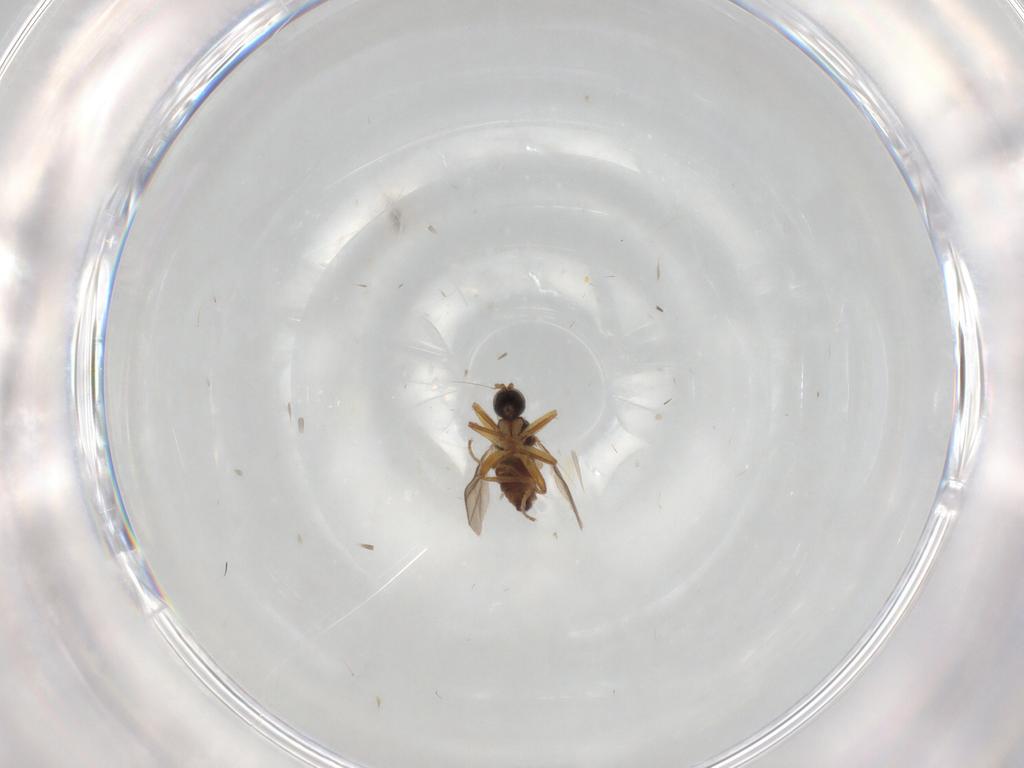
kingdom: Animalia
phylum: Arthropoda
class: Insecta
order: Diptera
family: Hybotidae
